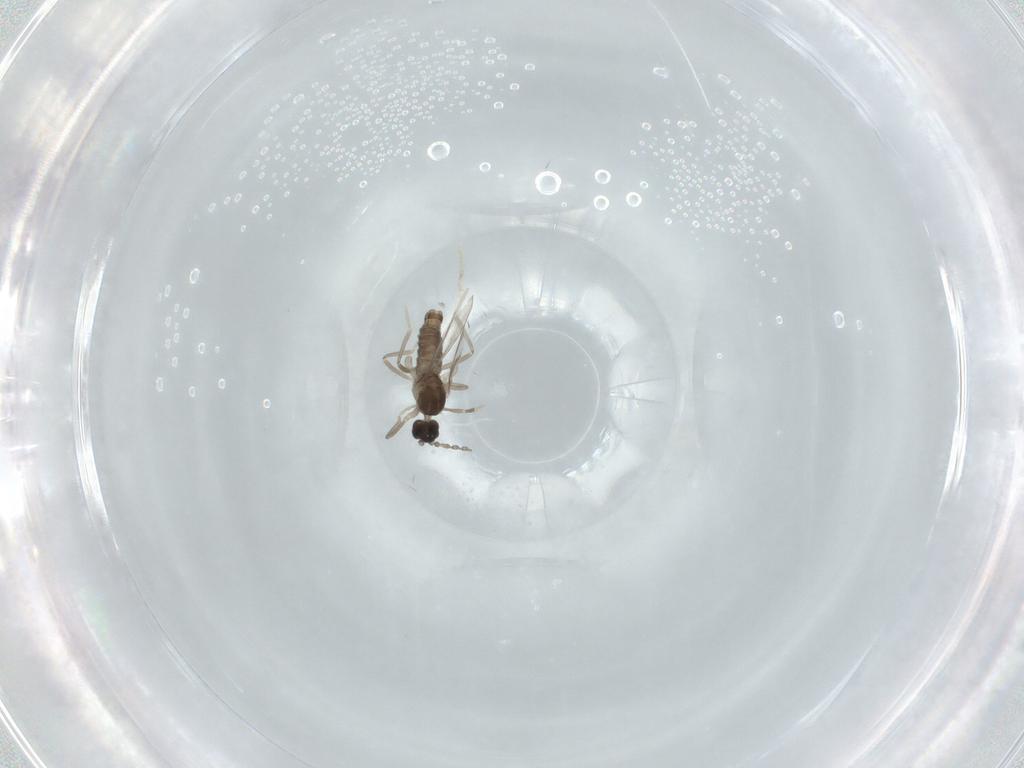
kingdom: Animalia
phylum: Arthropoda
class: Insecta
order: Diptera
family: Cecidomyiidae
